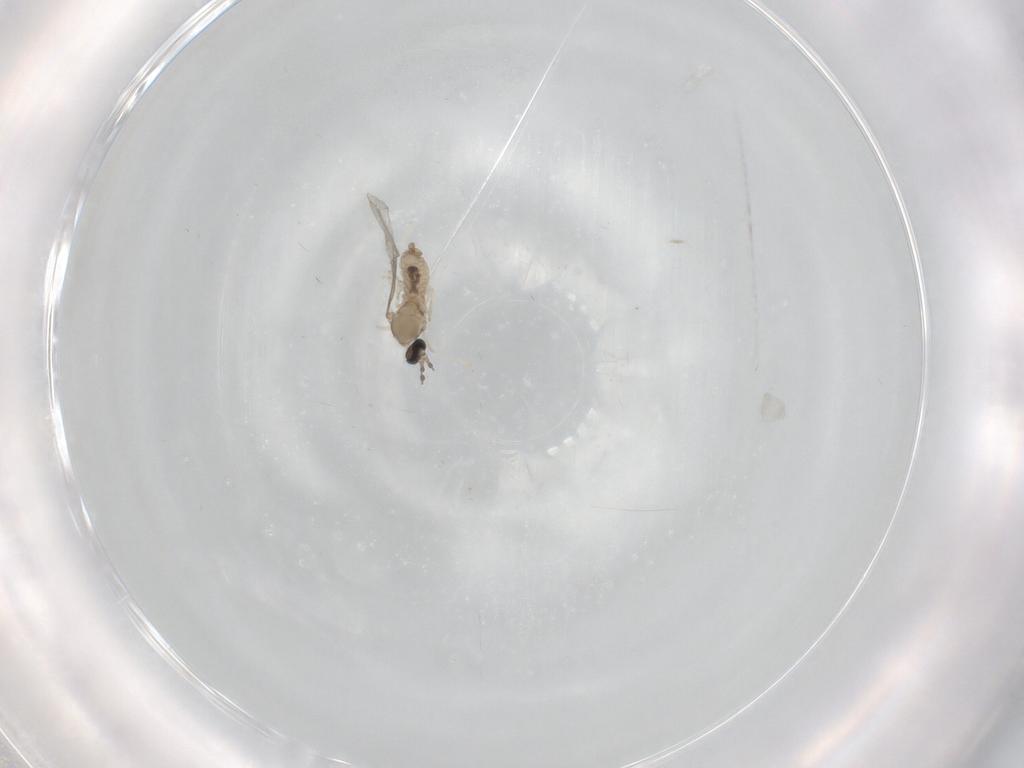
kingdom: Animalia
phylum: Arthropoda
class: Insecta
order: Diptera
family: Cecidomyiidae
